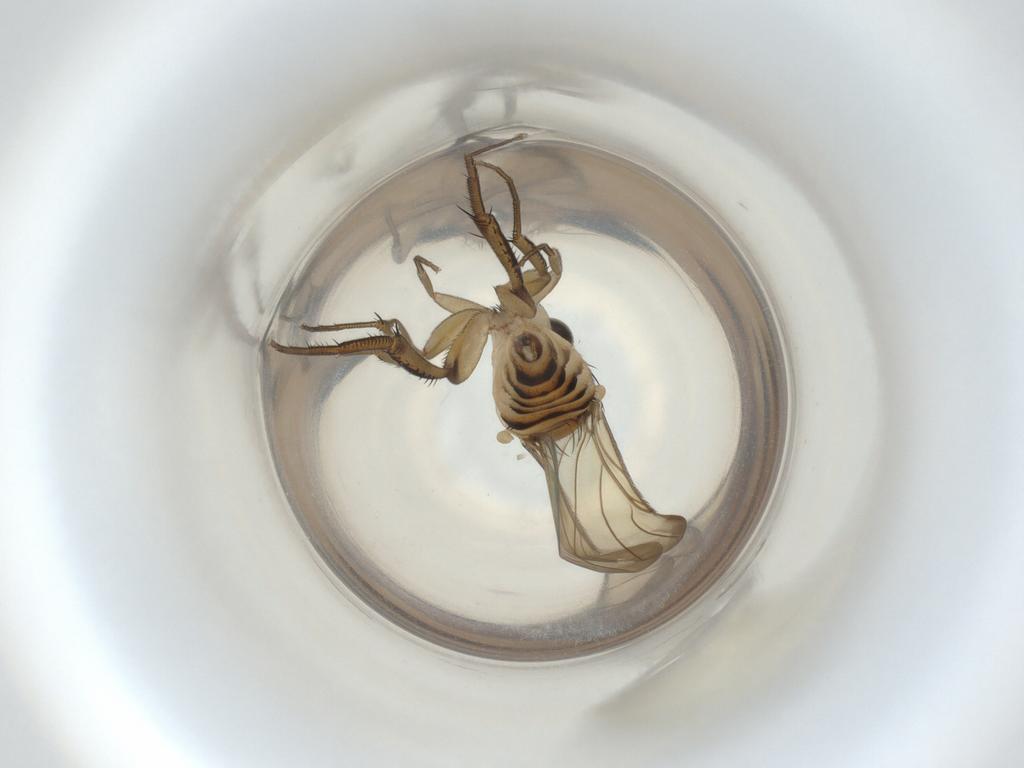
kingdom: Animalia
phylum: Arthropoda
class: Insecta
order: Diptera
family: Phoridae
